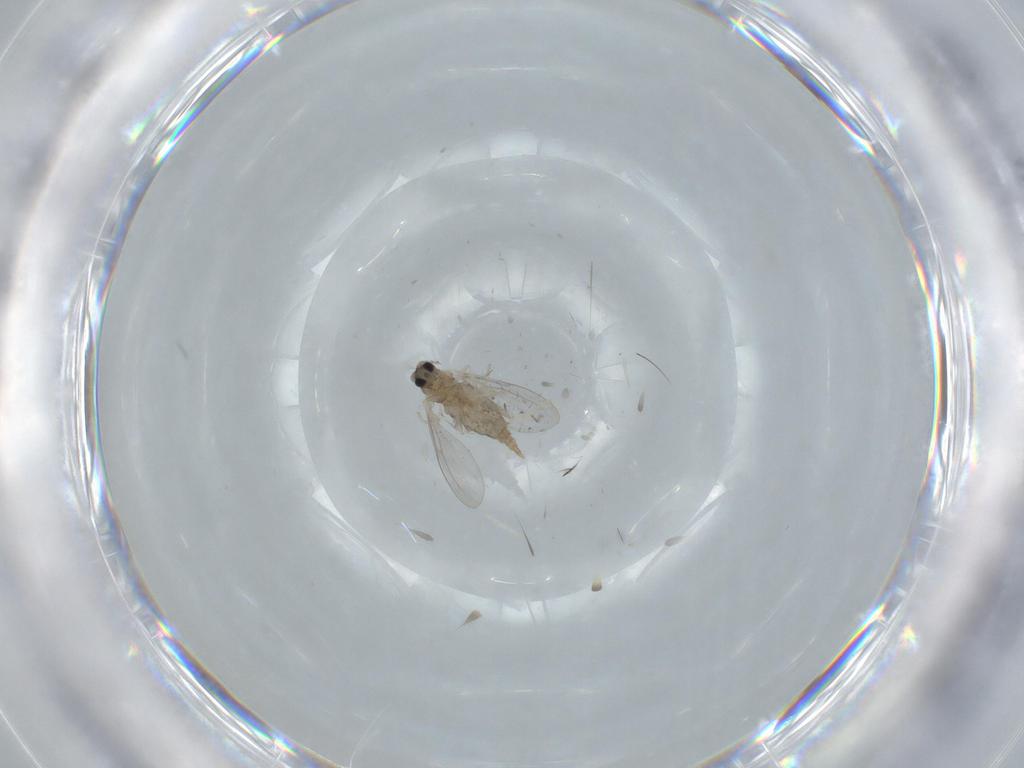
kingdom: Animalia
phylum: Arthropoda
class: Insecta
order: Diptera
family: Cecidomyiidae
